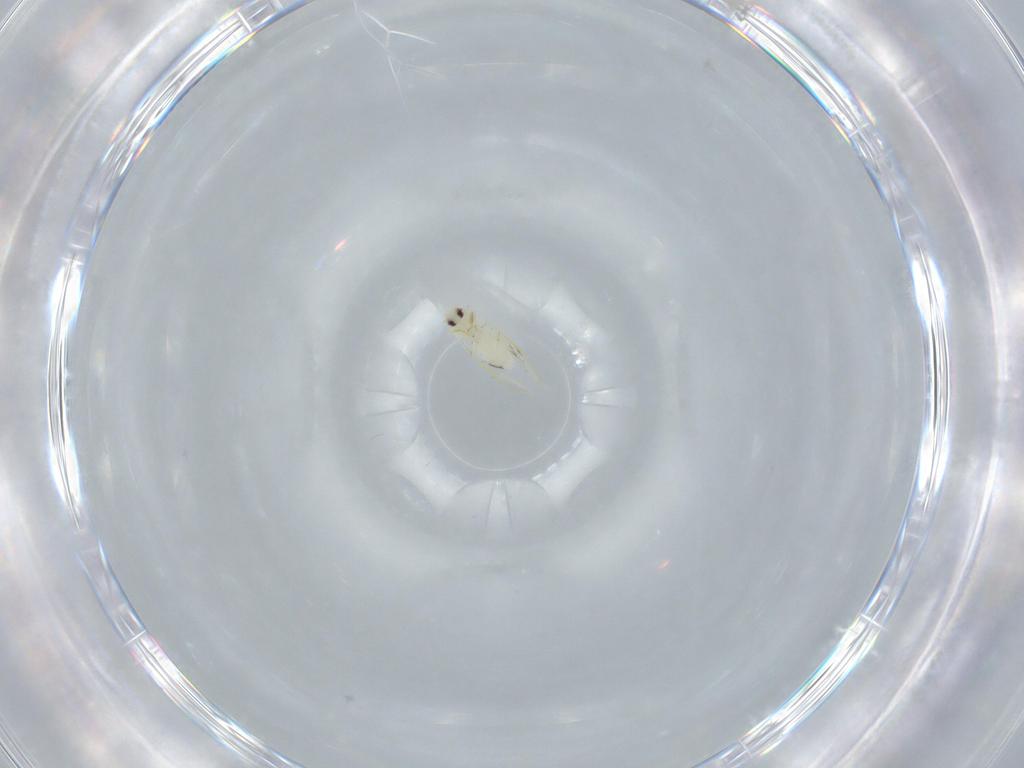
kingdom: Animalia
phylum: Arthropoda
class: Insecta
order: Hemiptera
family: Aleyrodidae
